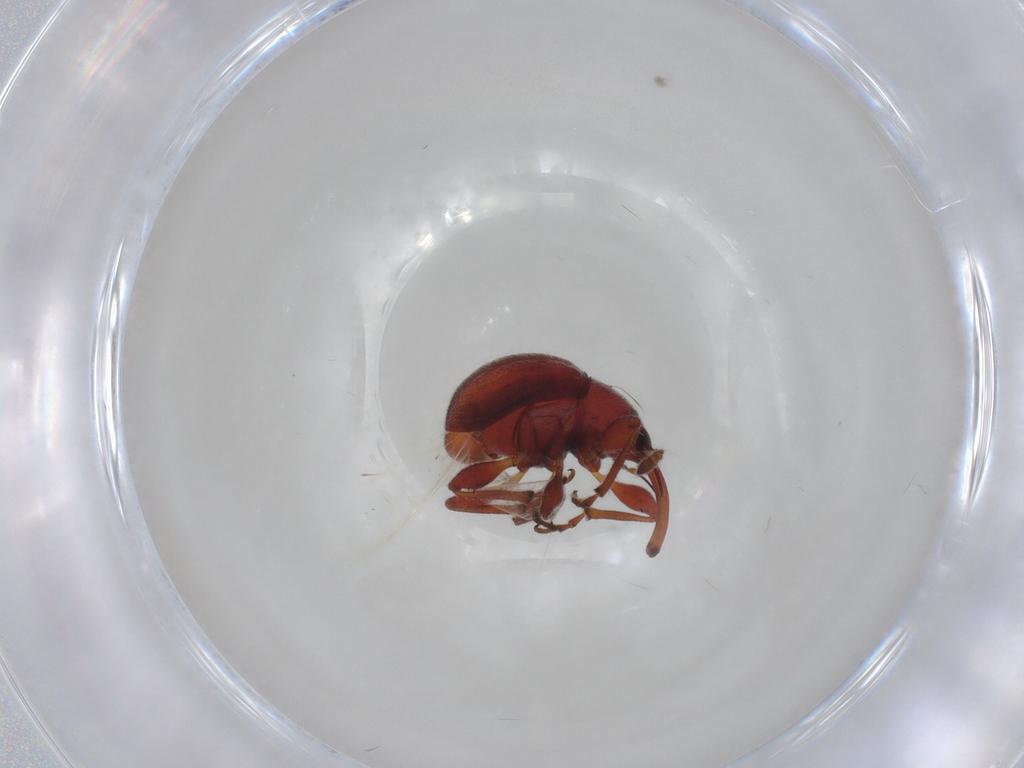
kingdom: Animalia
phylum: Arthropoda
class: Insecta
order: Coleoptera
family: Brentidae
